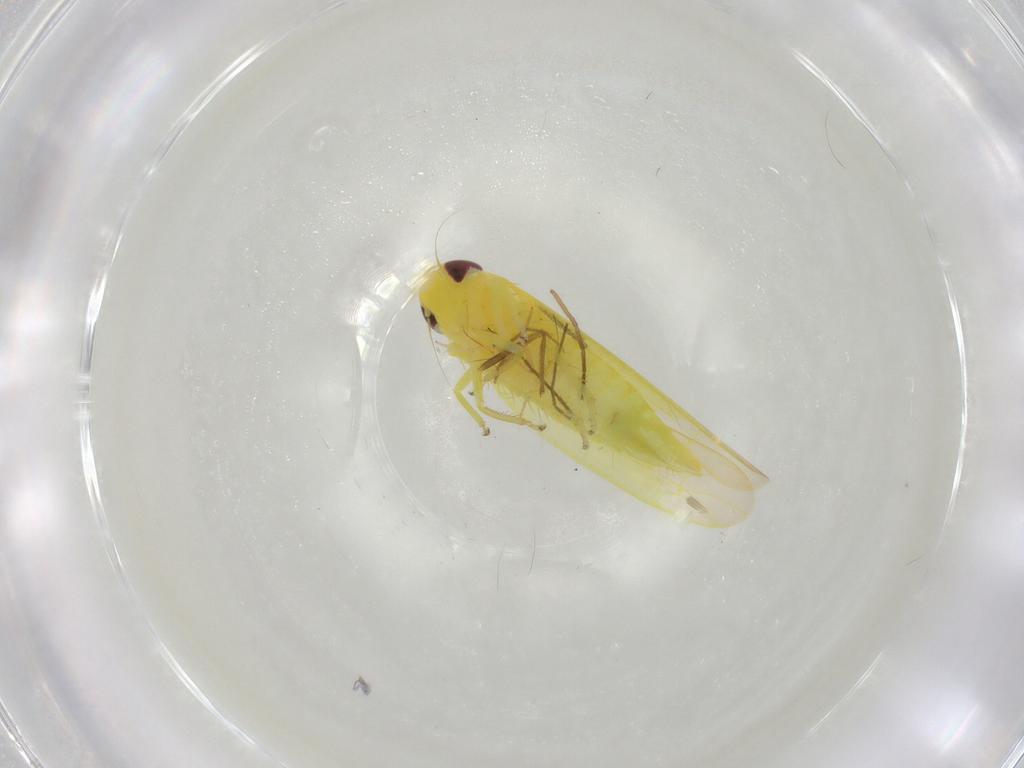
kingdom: Animalia
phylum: Arthropoda
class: Insecta
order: Hemiptera
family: Cicadellidae
